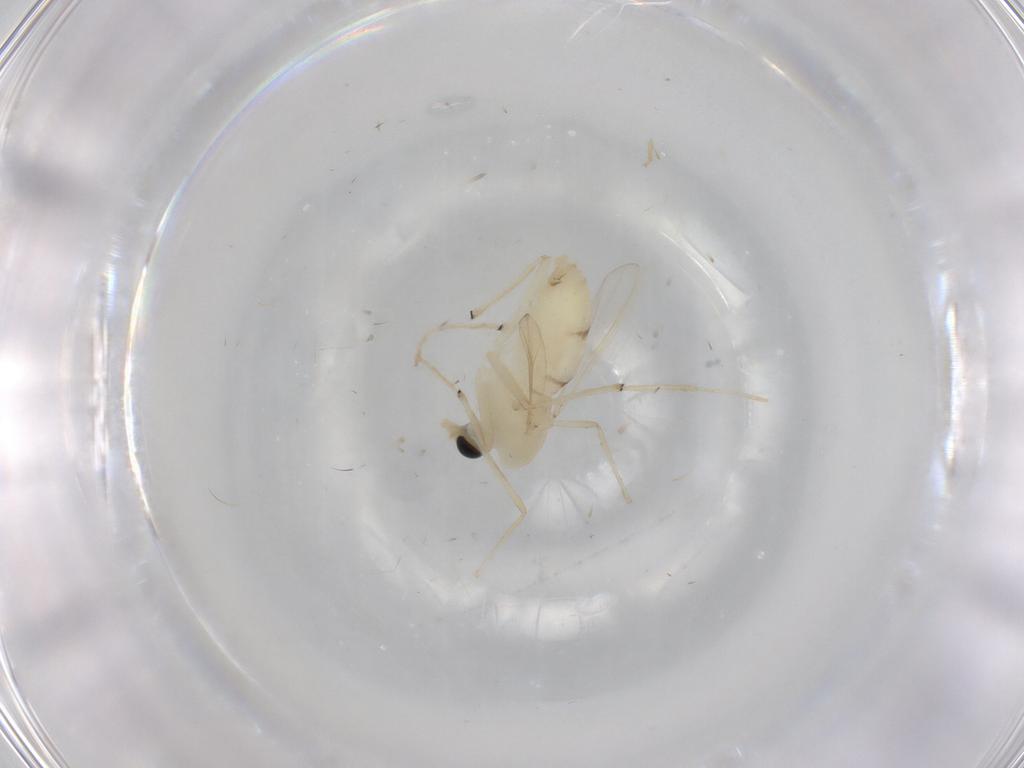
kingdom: Animalia
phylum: Arthropoda
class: Insecta
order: Diptera
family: Chironomidae
